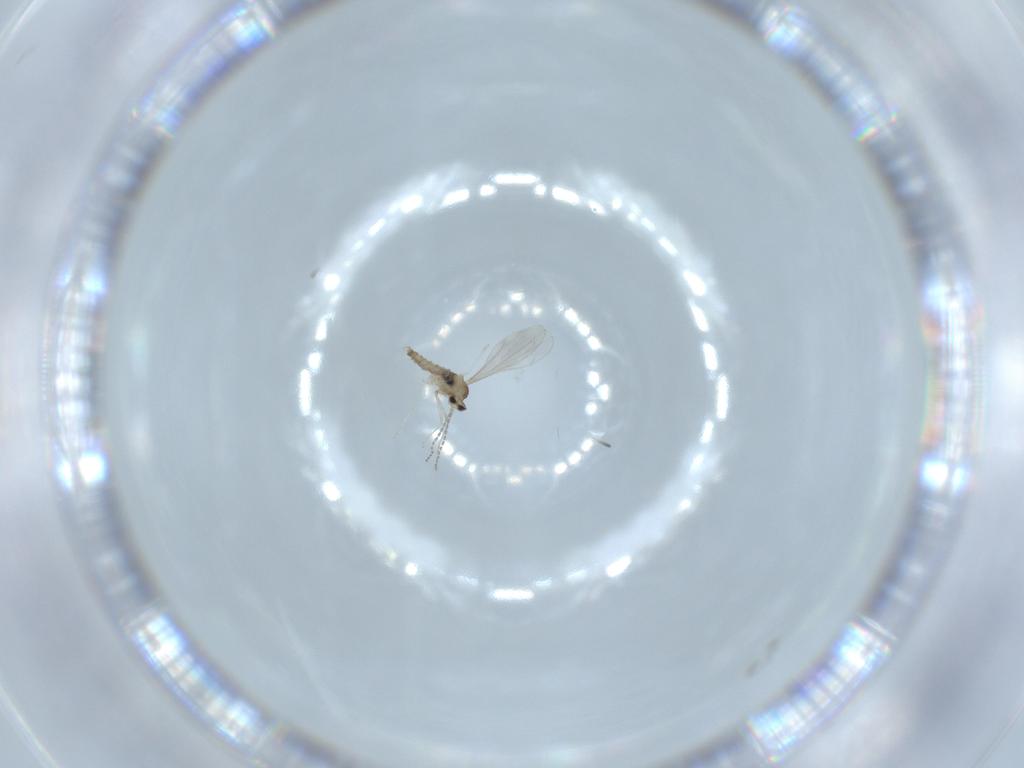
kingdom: Animalia
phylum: Arthropoda
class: Insecta
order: Diptera
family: Cecidomyiidae
